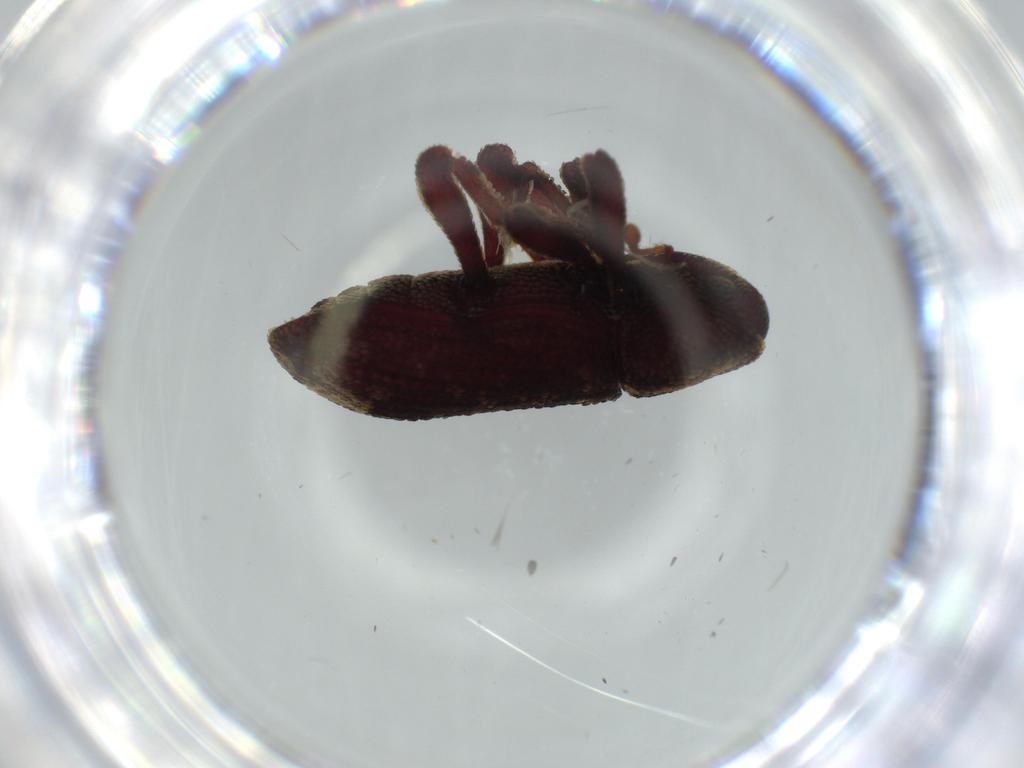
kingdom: Animalia
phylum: Arthropoda
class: Insecta
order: Coleoptera
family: Curculionidae
